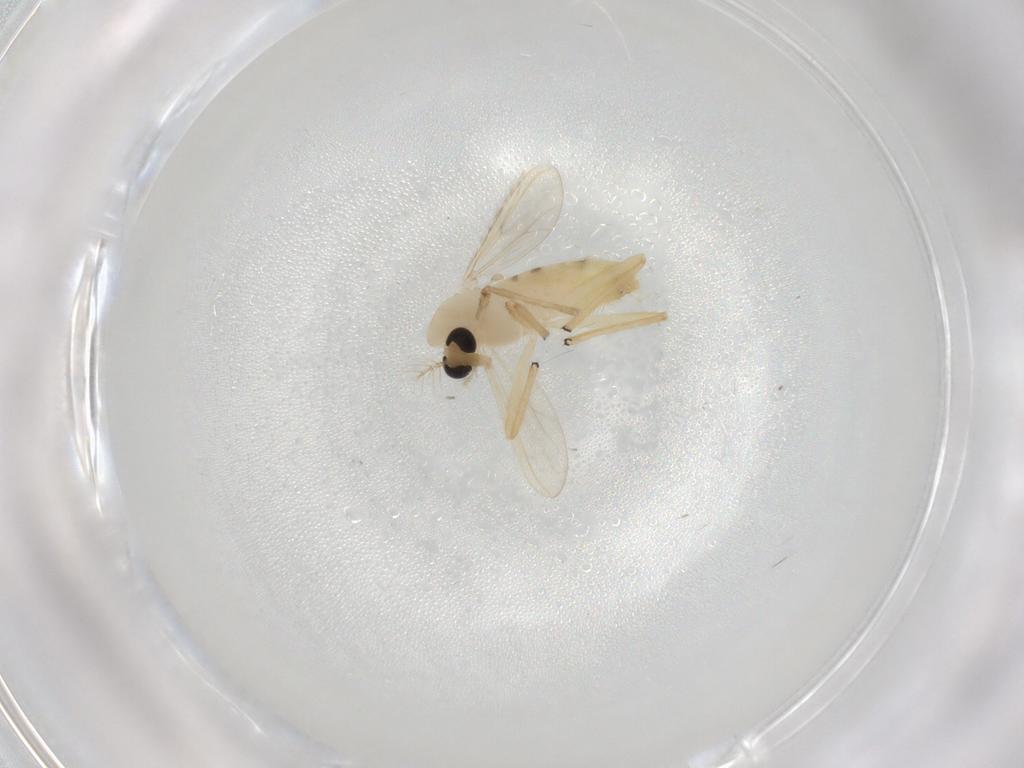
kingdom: Animalia
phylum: Arthropoda
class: Insecta
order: Diptera
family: Chironomidae
